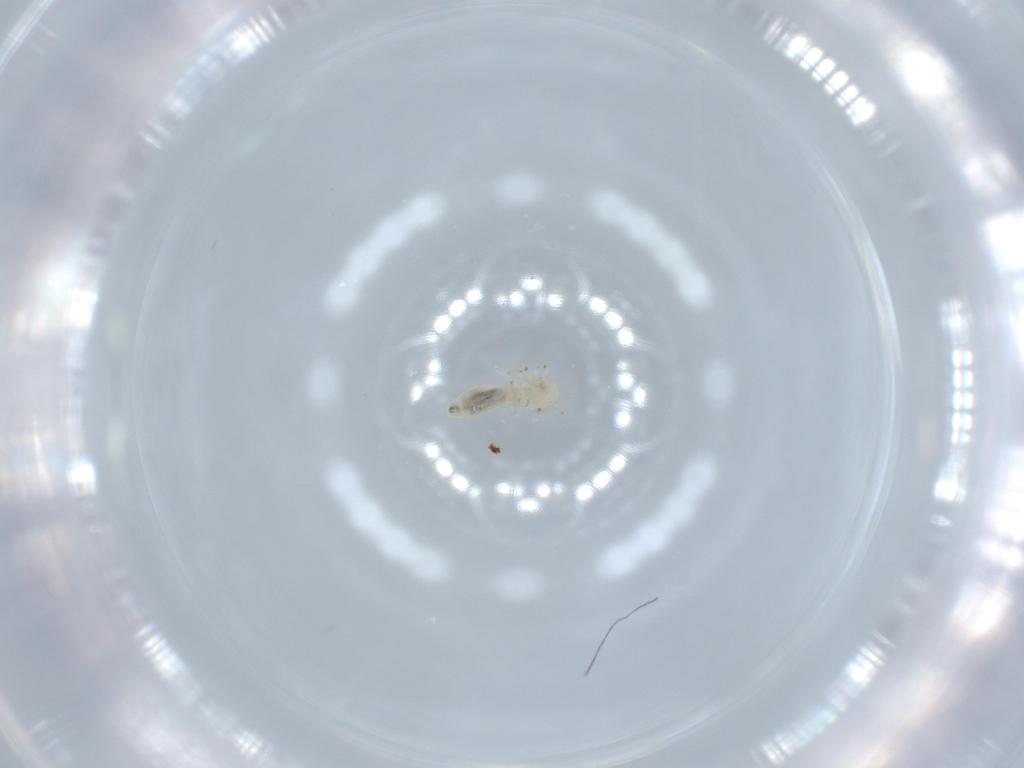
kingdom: Animalia
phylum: Arthropoda
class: Insecta
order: Psocodea
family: Caeciliusidae
